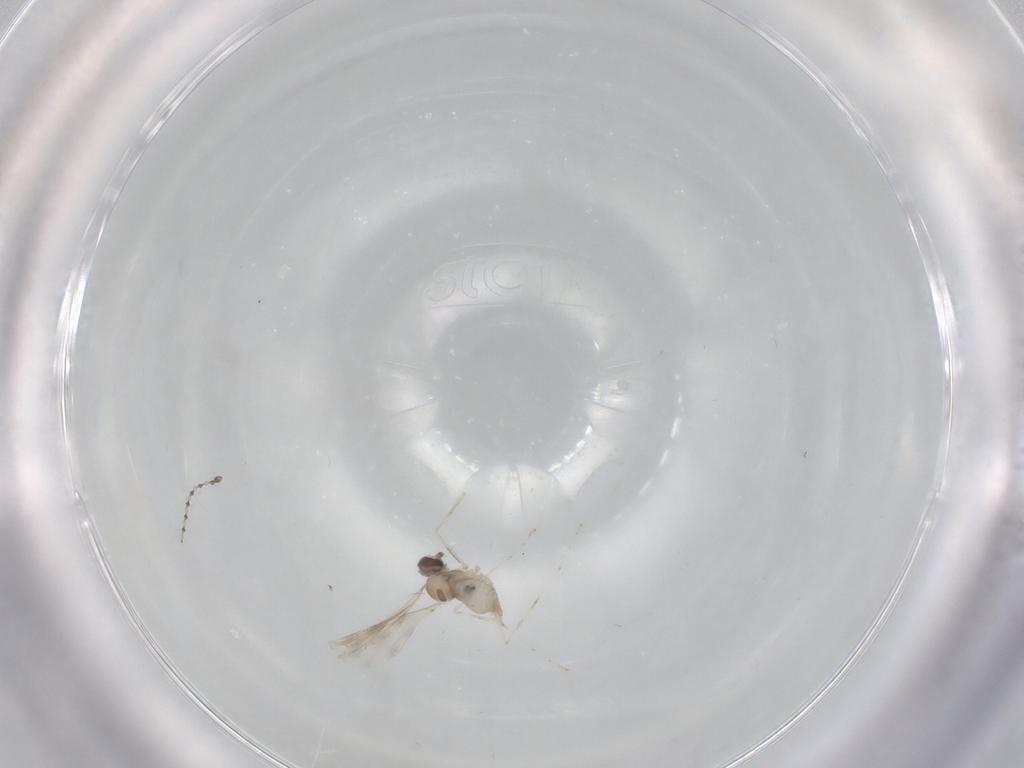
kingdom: Animalia
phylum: Arthropoda
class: Insecta
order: Diptera
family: Cecidomyiidae
